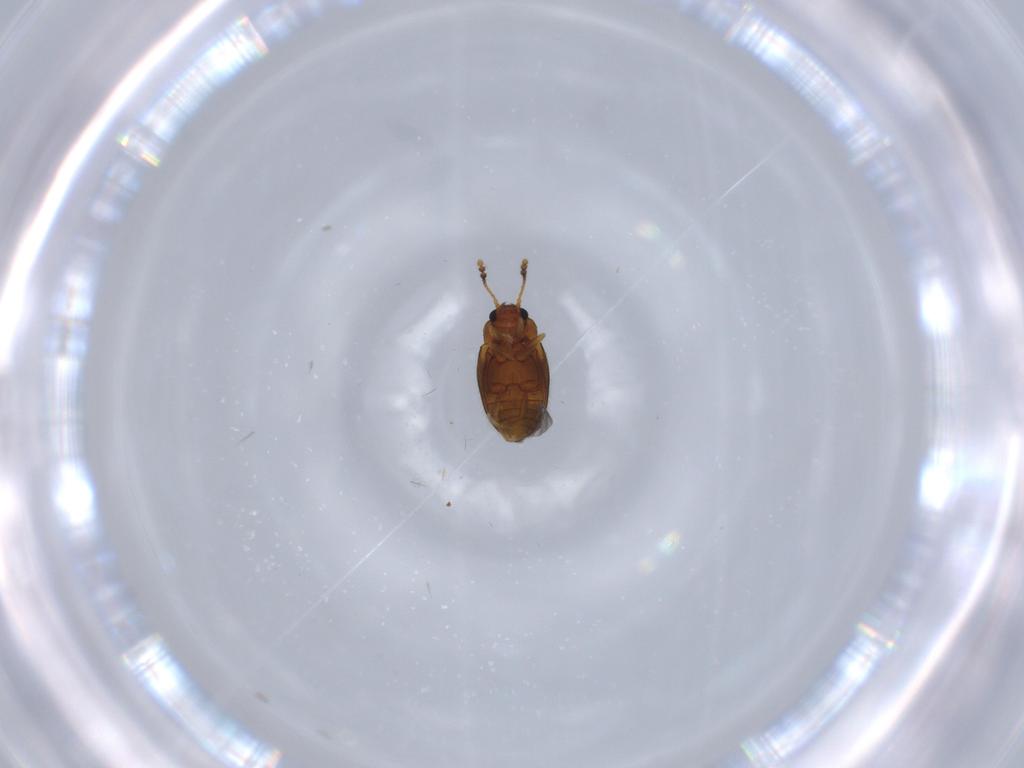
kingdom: Animalia
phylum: Arthropoda
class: Insecta
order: Coleoptera
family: Erotylidae
